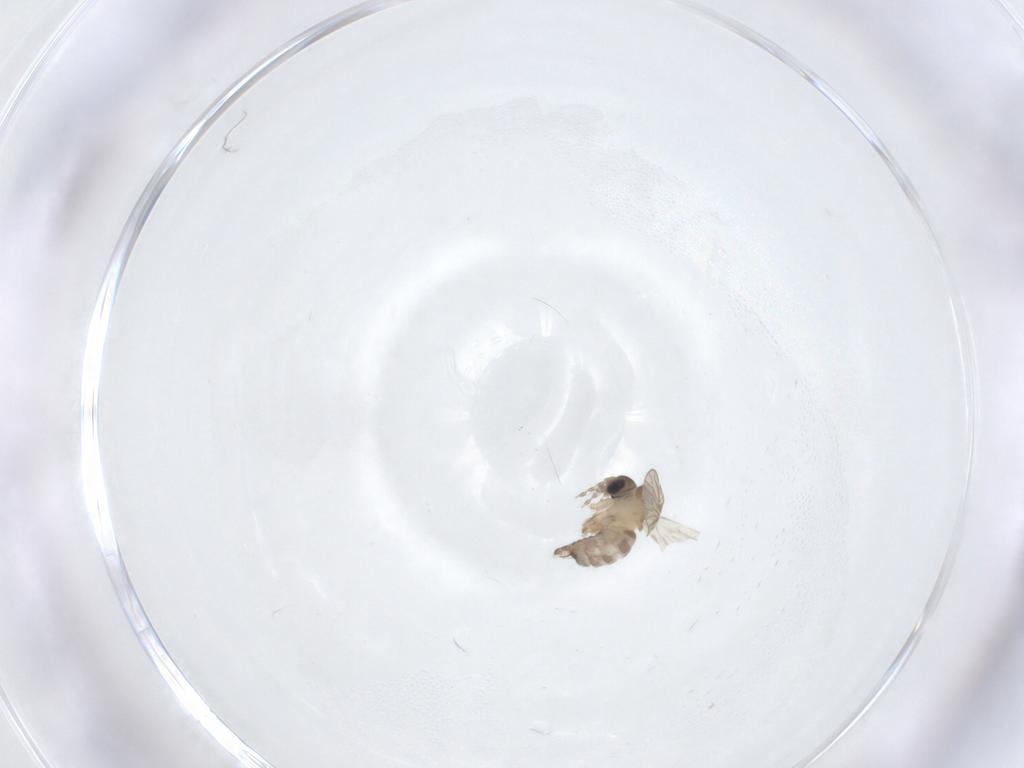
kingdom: Animalia
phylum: Arthropoda
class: Insecta
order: Diptera
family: Psychodidae
